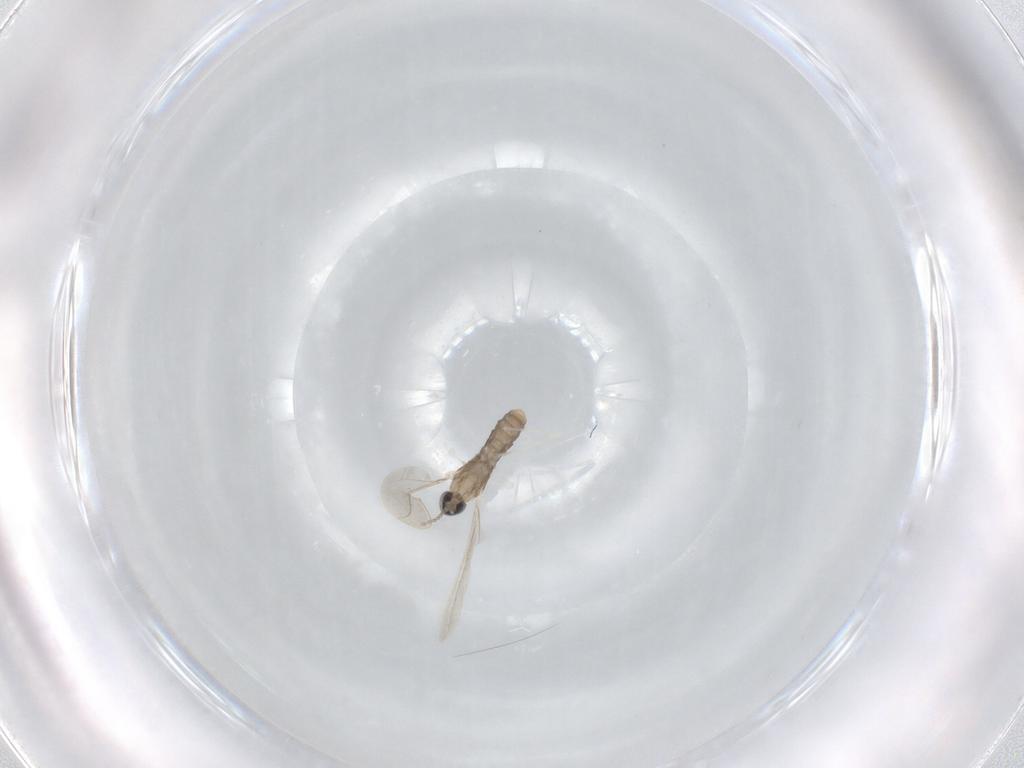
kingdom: Animalia
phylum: Arthropoda
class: Insecta
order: Diptera
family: Cecidomyiidae
